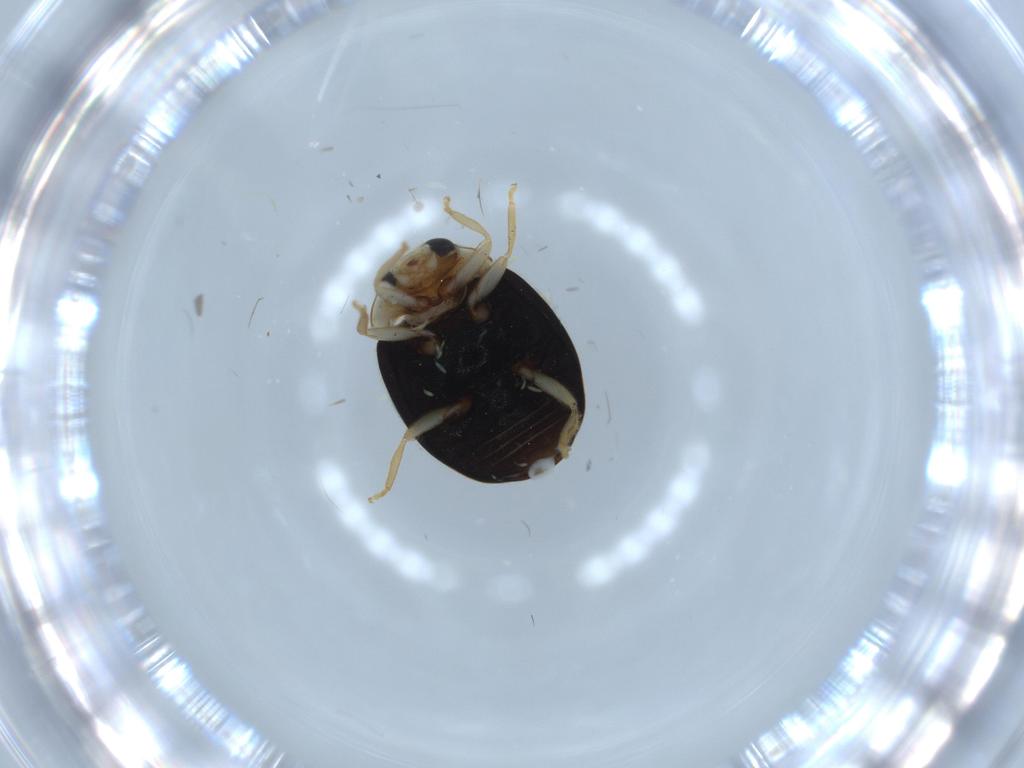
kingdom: Animalia
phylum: Arthropoda
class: Insecta
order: Coleoptera
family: Coccinellidae
